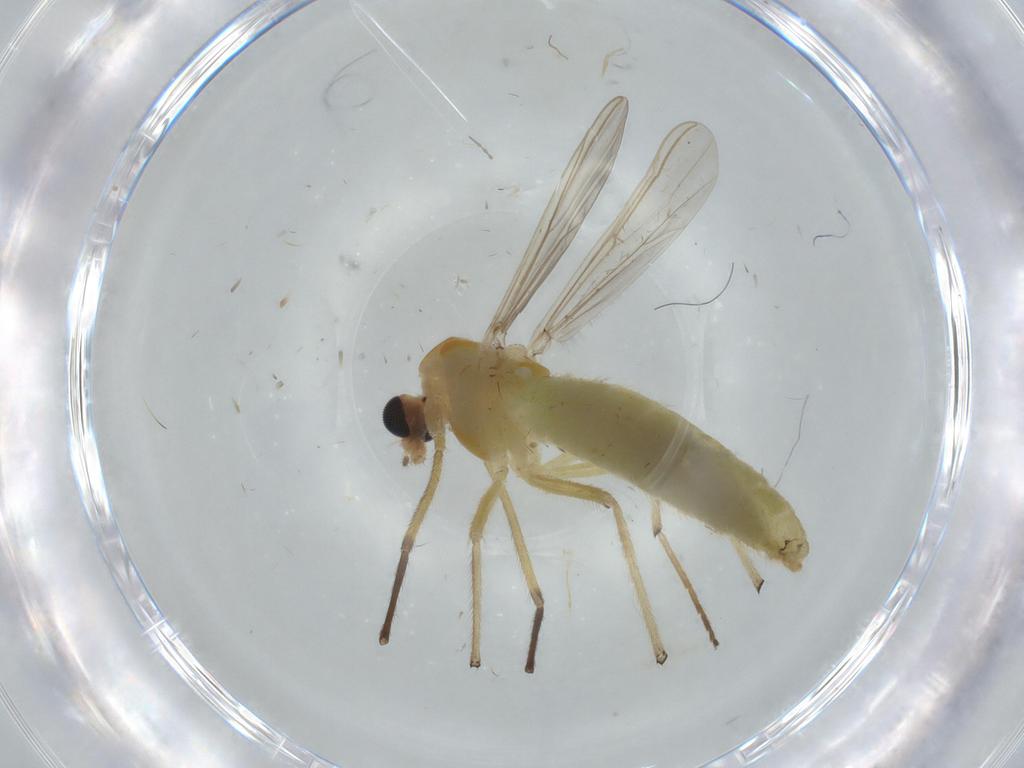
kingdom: Animalia
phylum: Arthropoda
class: Insecta
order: Diptera
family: Chironomidae
